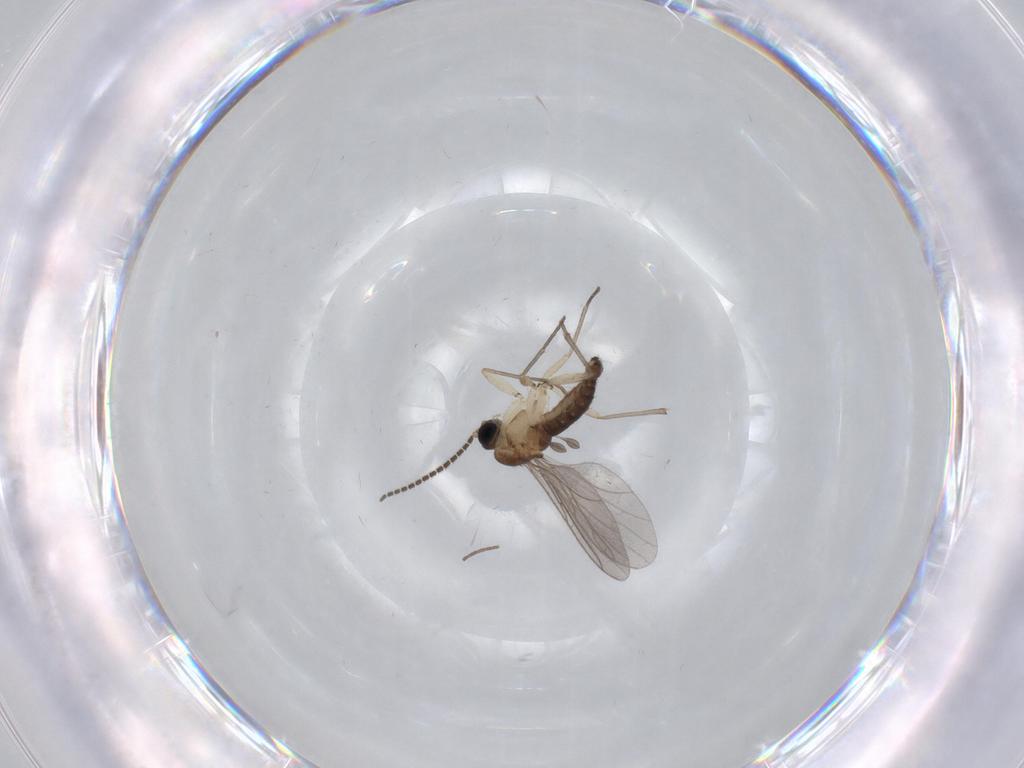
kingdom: Animalia
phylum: Arthropoda
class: Insecta
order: Diptera
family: Sciaridae
